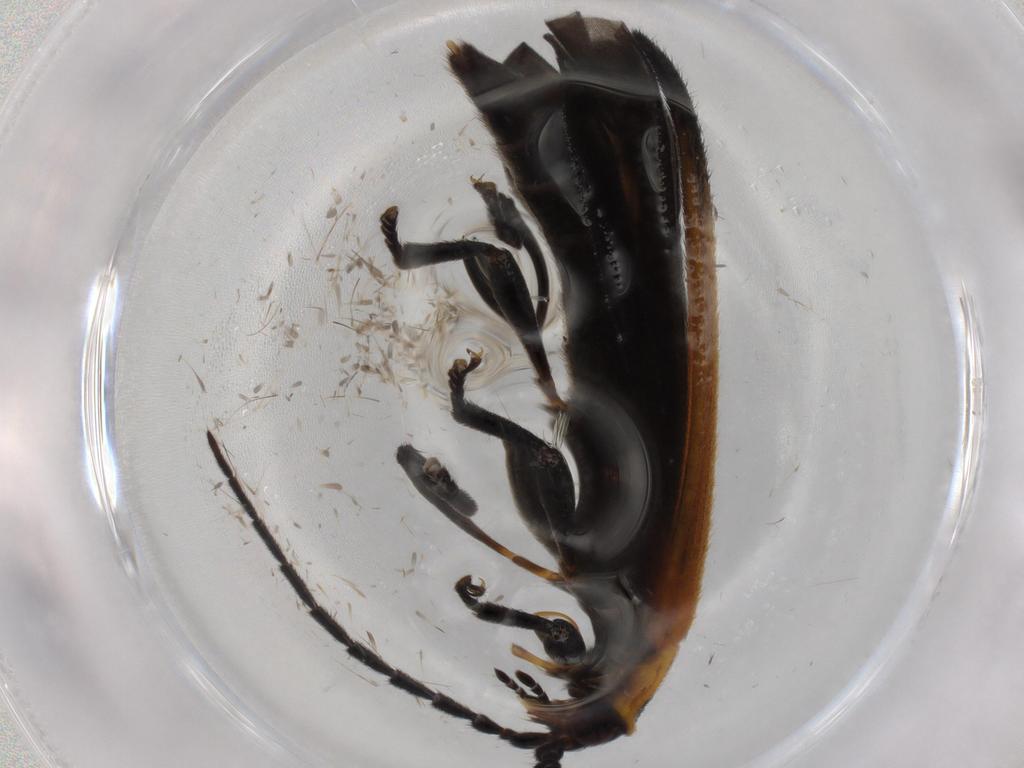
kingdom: Animalia
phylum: Arthropoda
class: Insecta
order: Coleoptera
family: Lycidae
